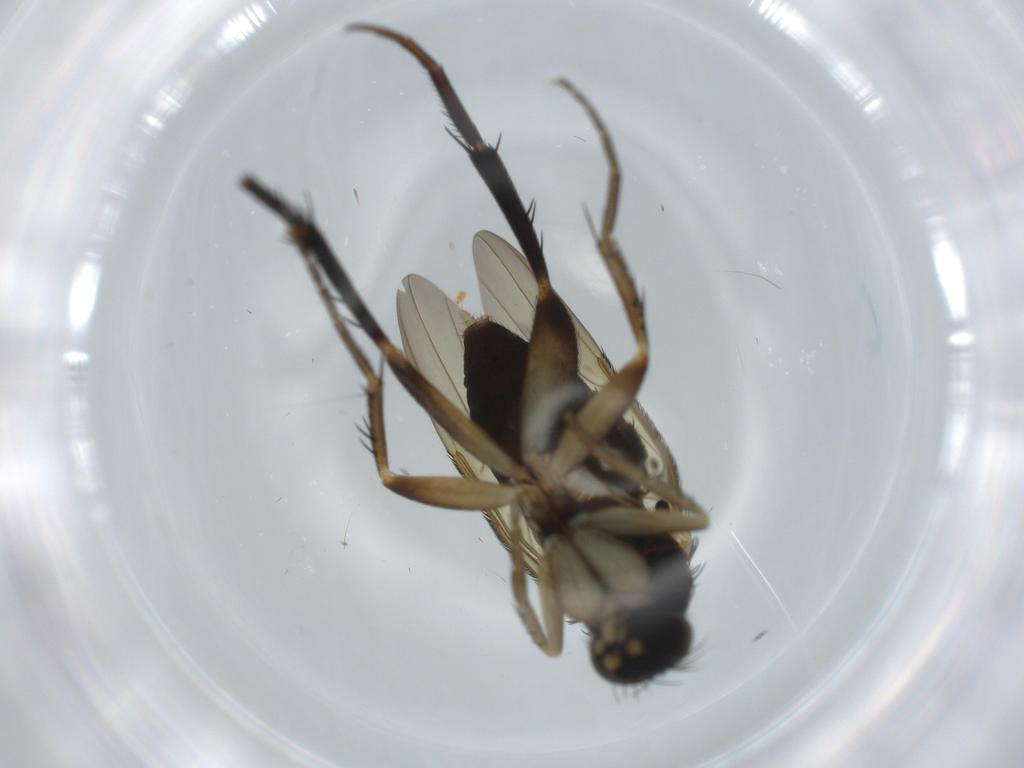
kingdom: Animalia
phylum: Arthropoda
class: Insecta
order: Diptera
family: Phoridae
